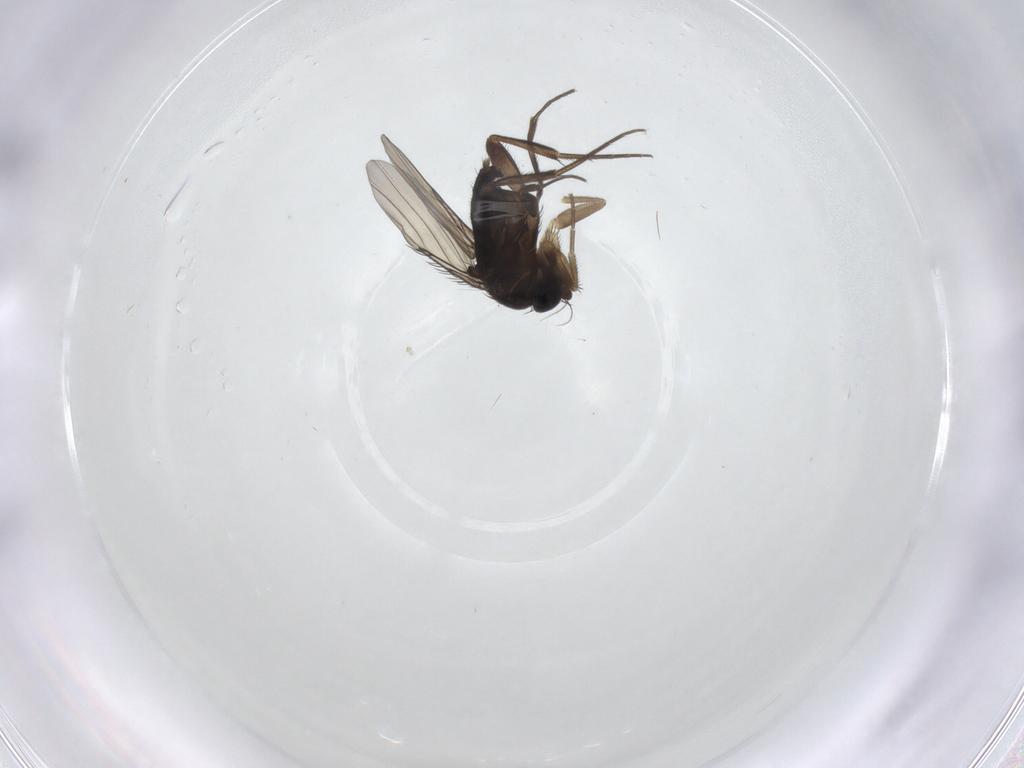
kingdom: Animalia
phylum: Arthropoda
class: Insecta
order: Diptera
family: Phoridae
